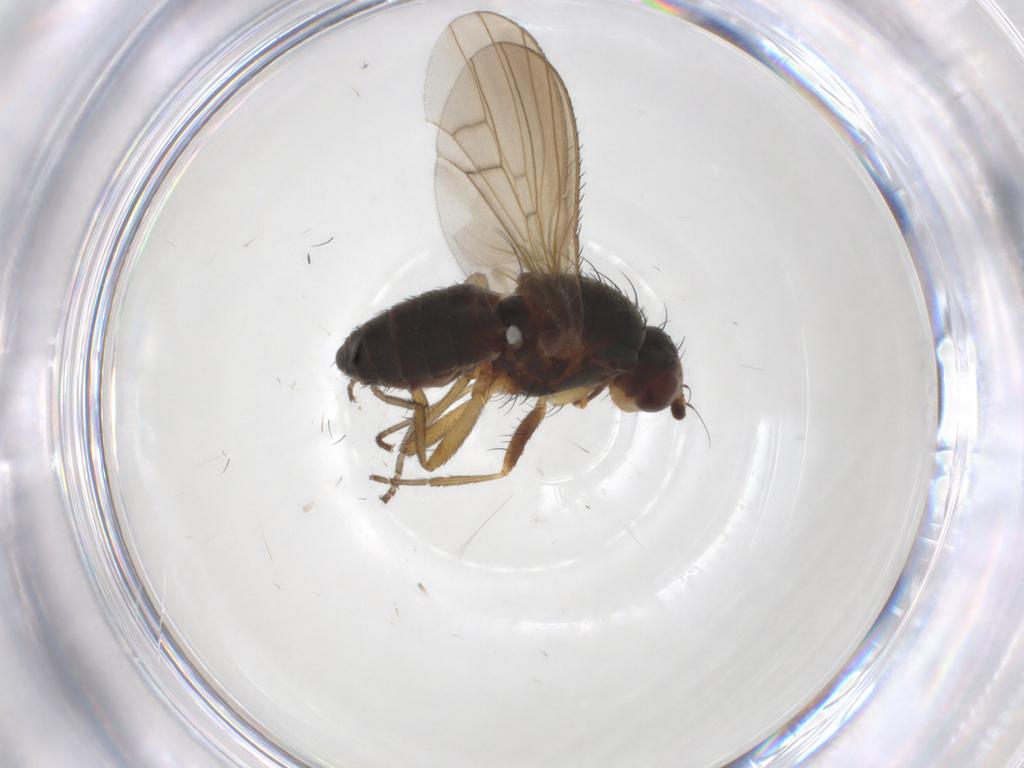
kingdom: Animalia
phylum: Arthropoda
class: Insecta
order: Diptera
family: Heleomyzidae
